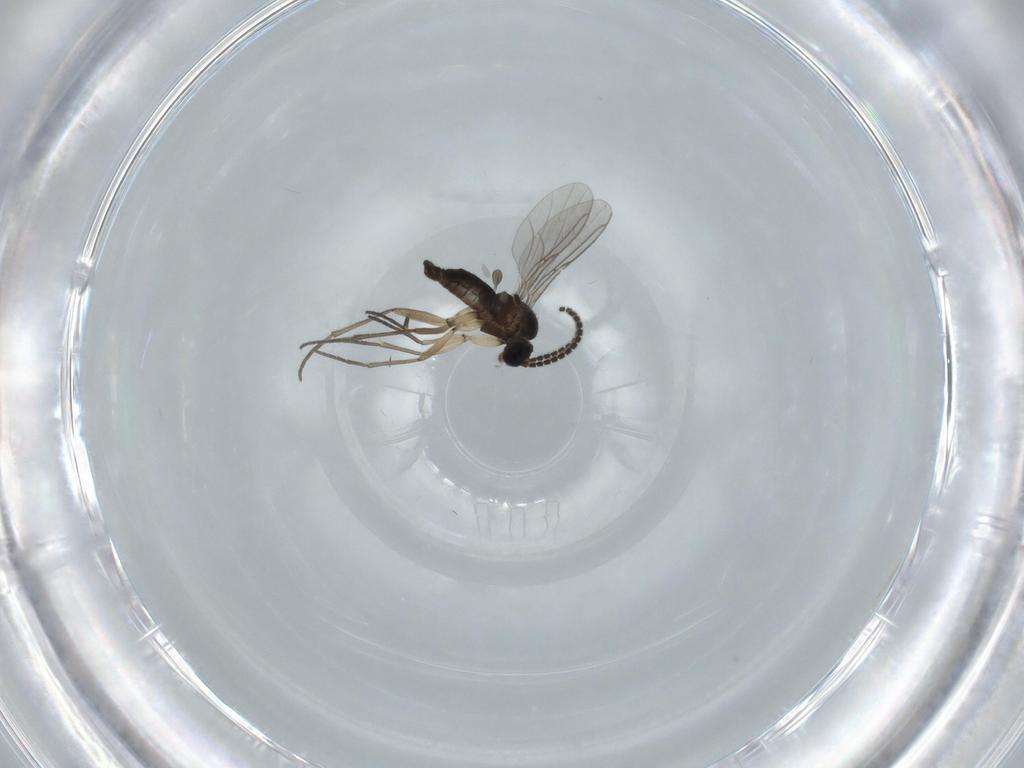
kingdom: Animalia
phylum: Arthropoda
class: Insecta
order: Diptera
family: Sciaridae
